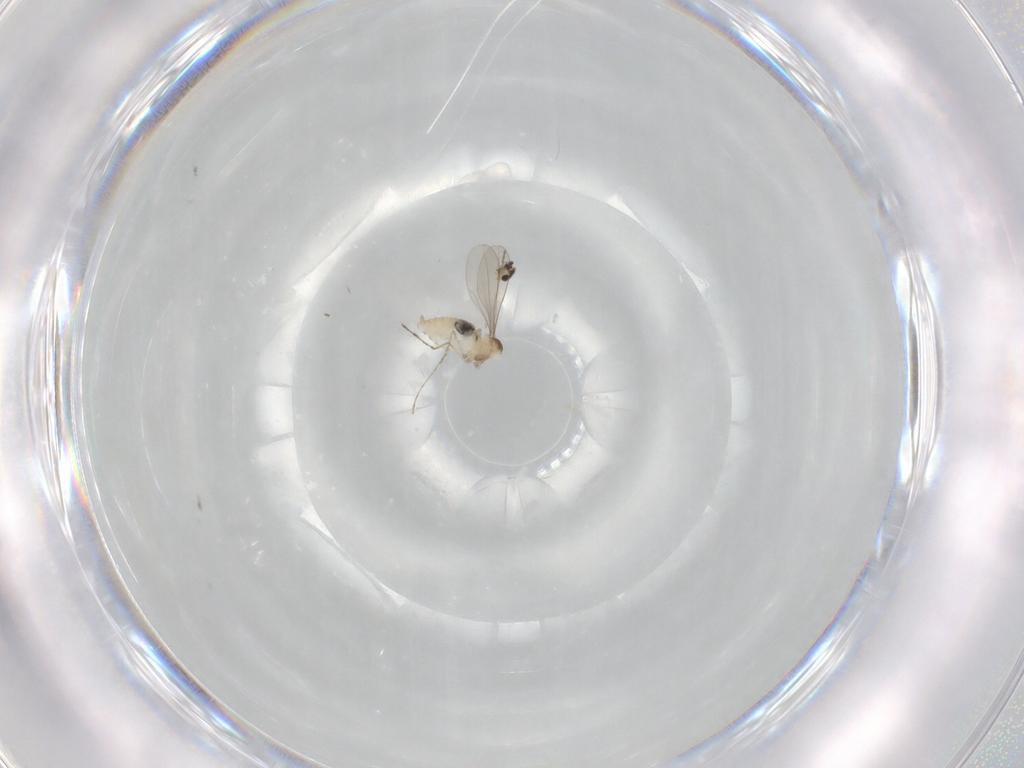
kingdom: Animalia
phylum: Arthropoda
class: Insecta
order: Diptera
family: Cecidomyiidae
